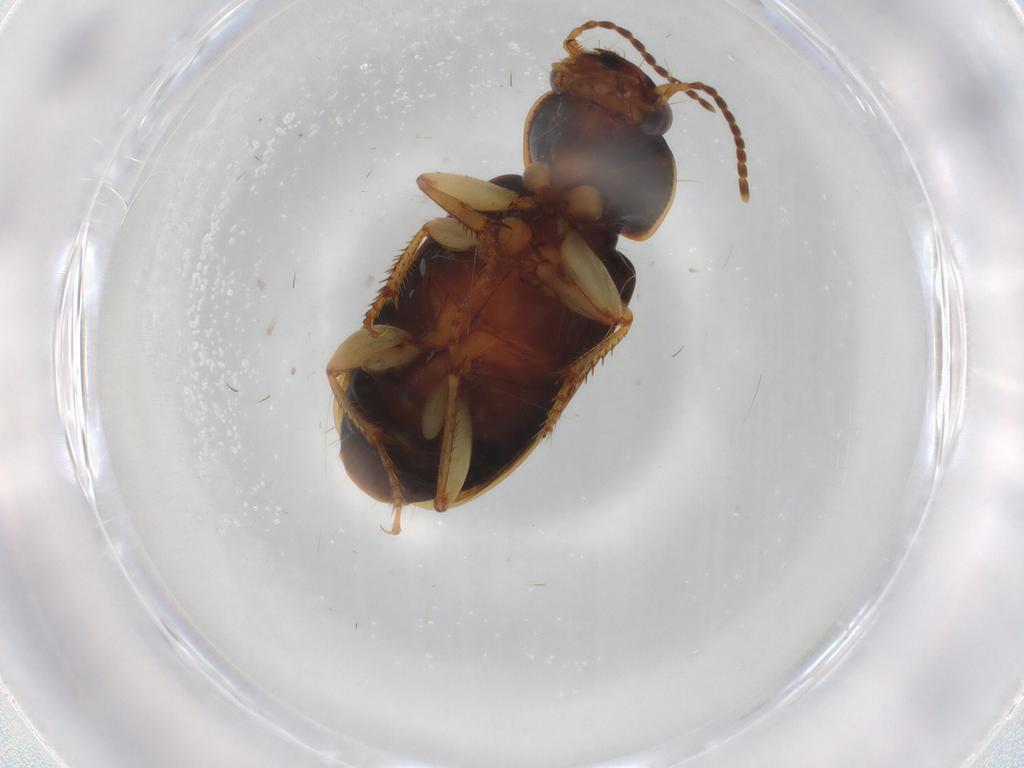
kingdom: Animalia
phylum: Arthropoda
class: Insecta
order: Coleoptera
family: Carabidae
